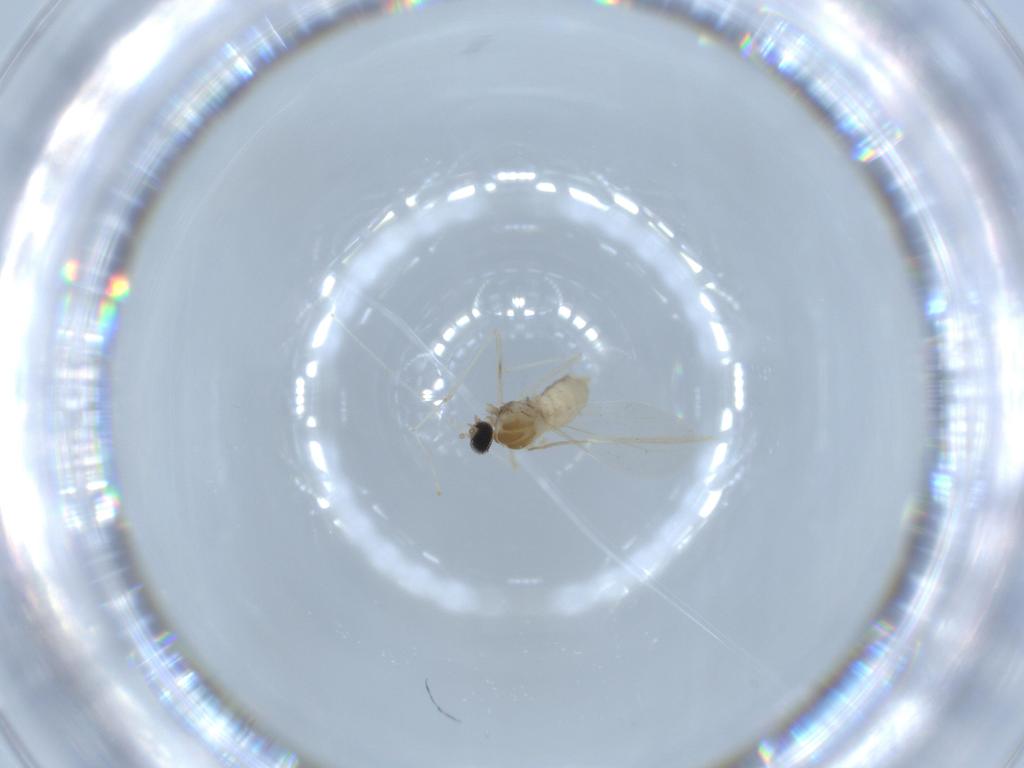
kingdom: Animalia
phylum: Arthropoda
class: Insecta
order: Diptera
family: Cecidomyiidae
